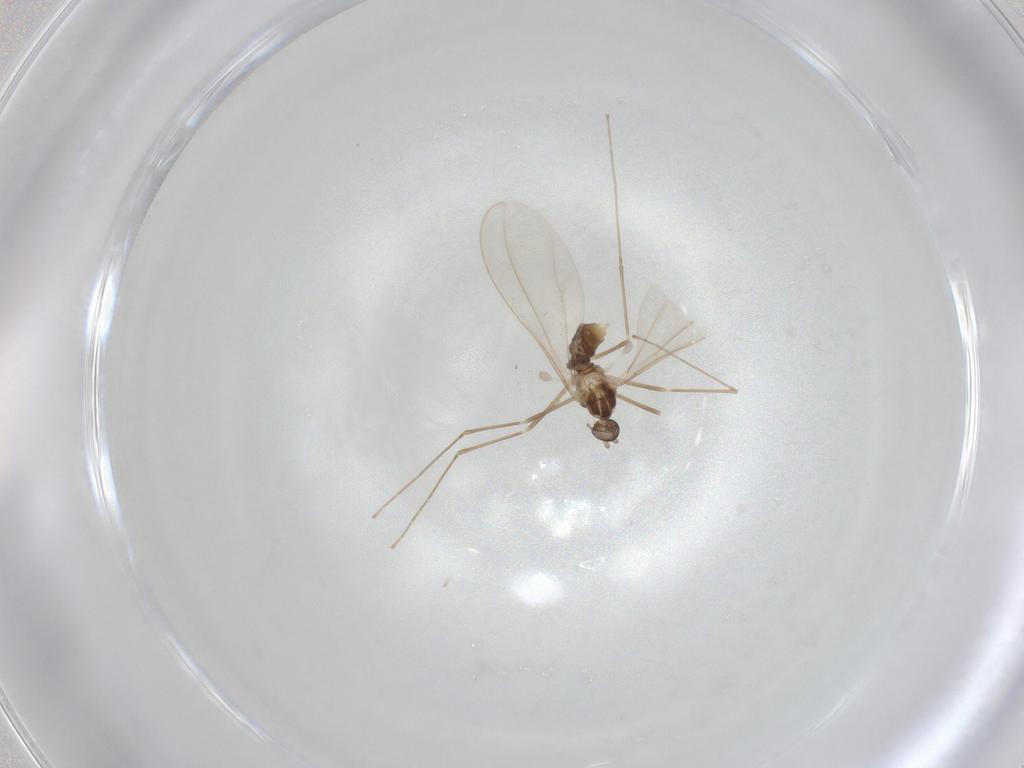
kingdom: Animalia
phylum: Arthropoda
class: Insecta
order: Diptera
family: Cecidomyiidae
